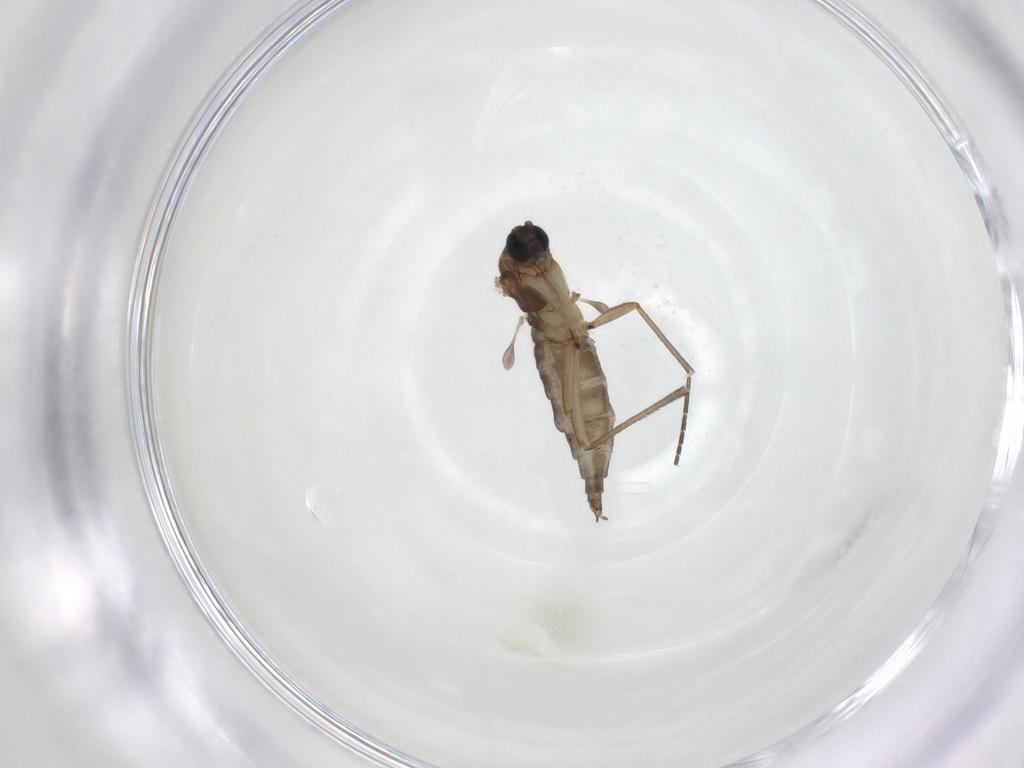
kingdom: Animalia
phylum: Arthropoda
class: Insecta
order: Diptera
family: Sciaridae
